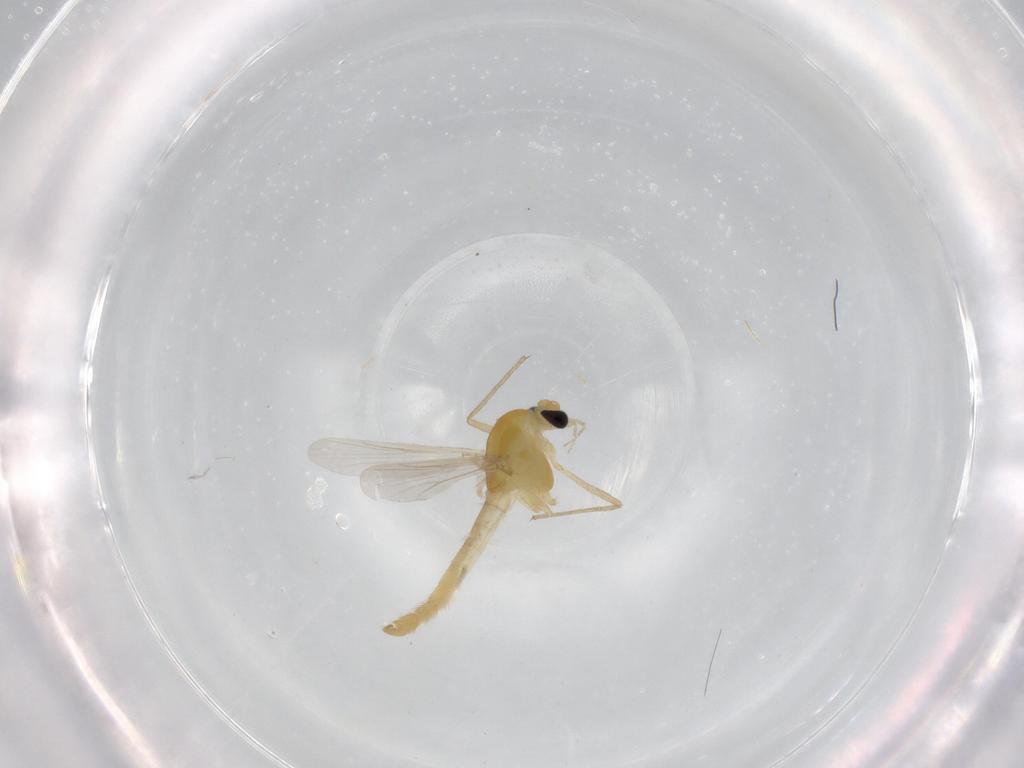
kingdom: Animalia
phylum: Arthropoda
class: Insecta
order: Diptera
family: Chironomidae
